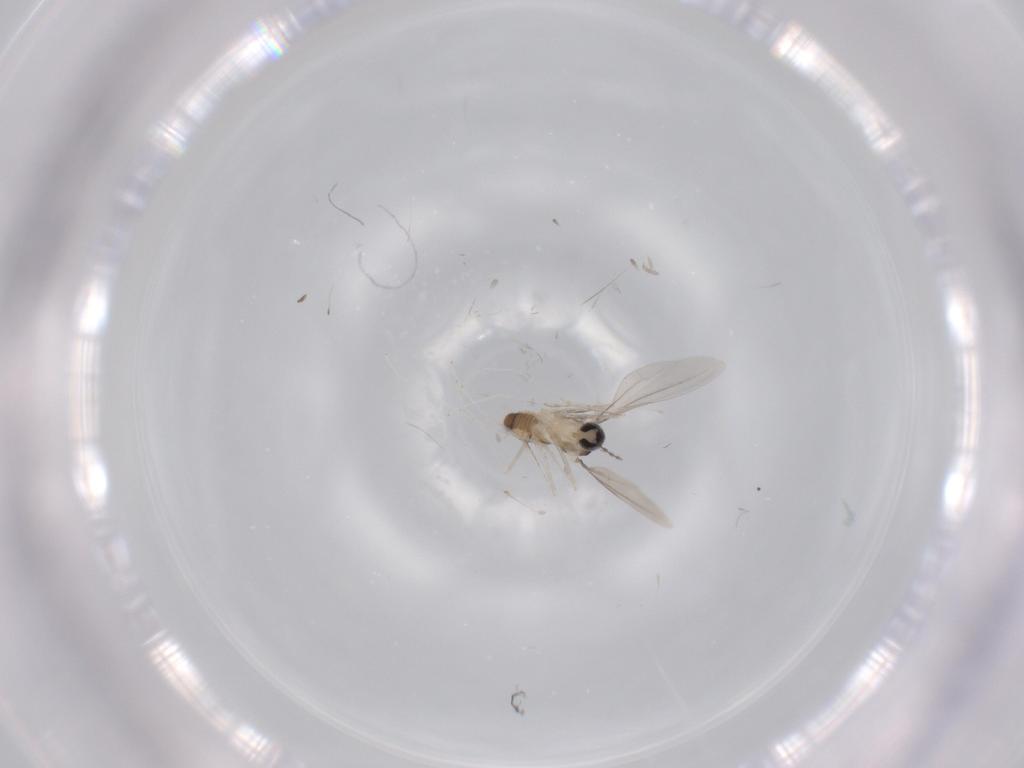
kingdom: Animalia
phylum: Arthropoda
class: Insecta
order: Diptera
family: Cecidomyiidae
